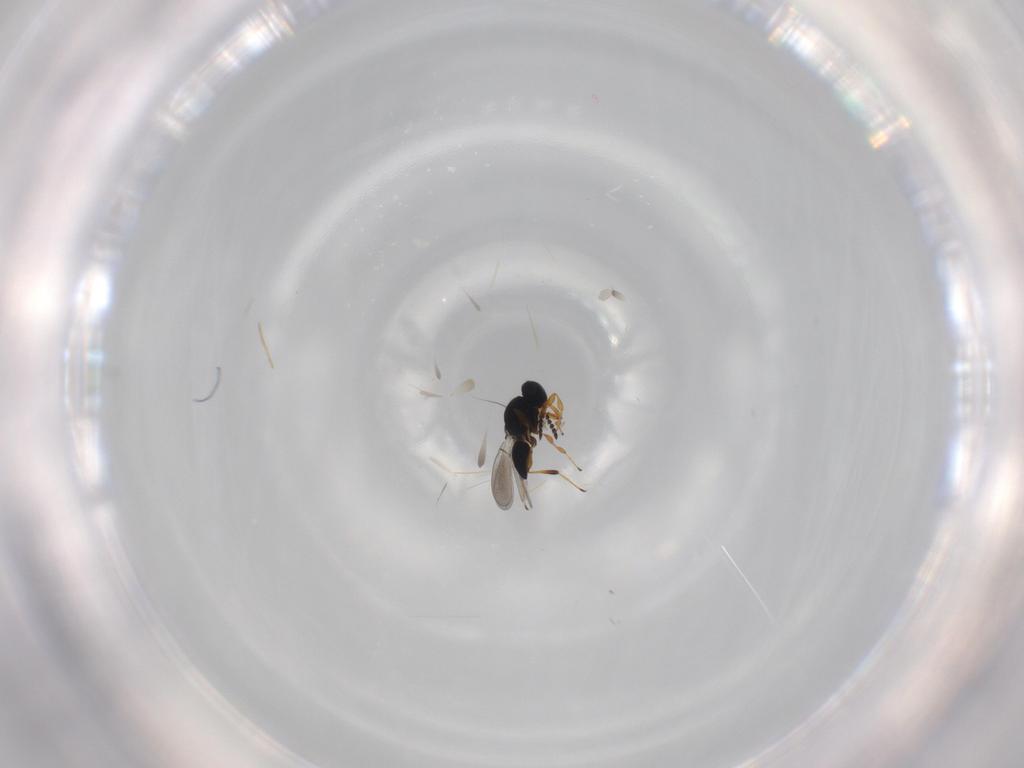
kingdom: Animalia
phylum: Arthropoda
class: Insecta
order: Hymenoptera
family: Platygastridae
